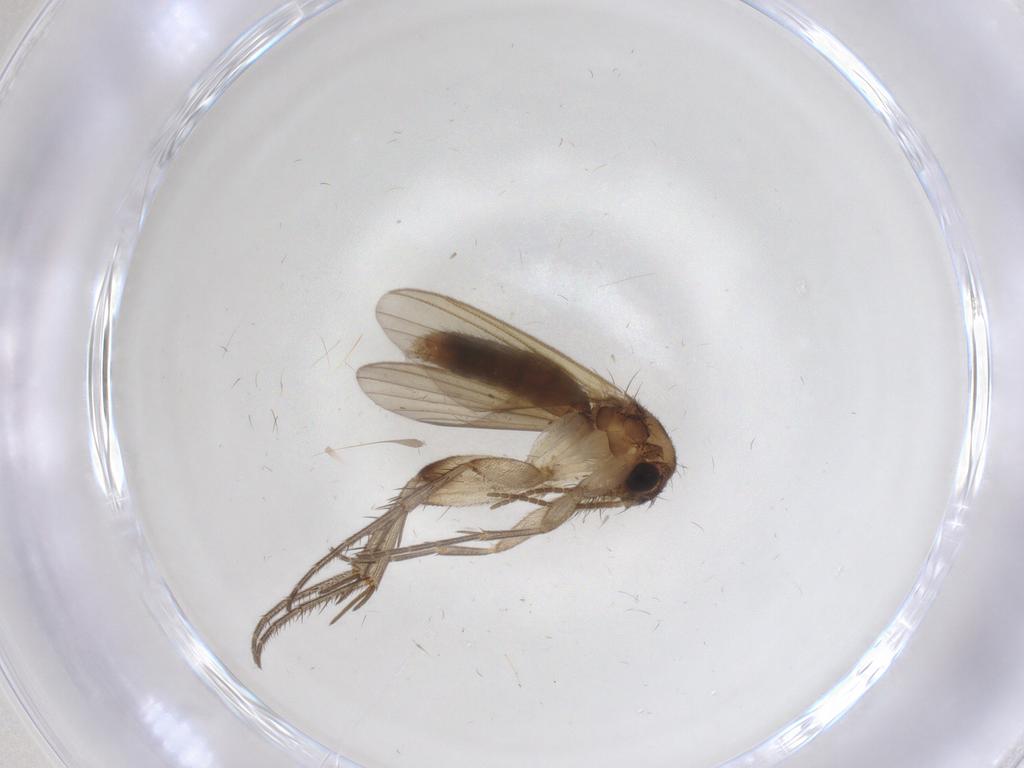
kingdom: Animalia
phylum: Arthropoda
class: Insecta
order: Diptera
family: Mycetophilidae
